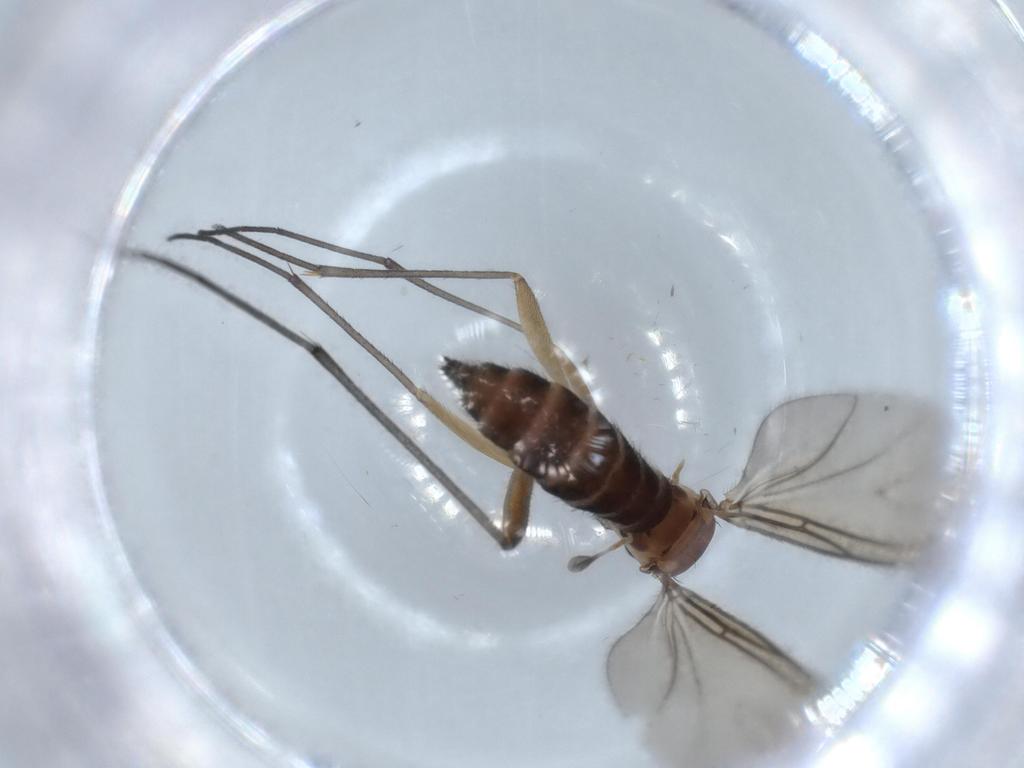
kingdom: Animalia
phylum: Arthropoda
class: Insecta
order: Diptera
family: Sciaridae
